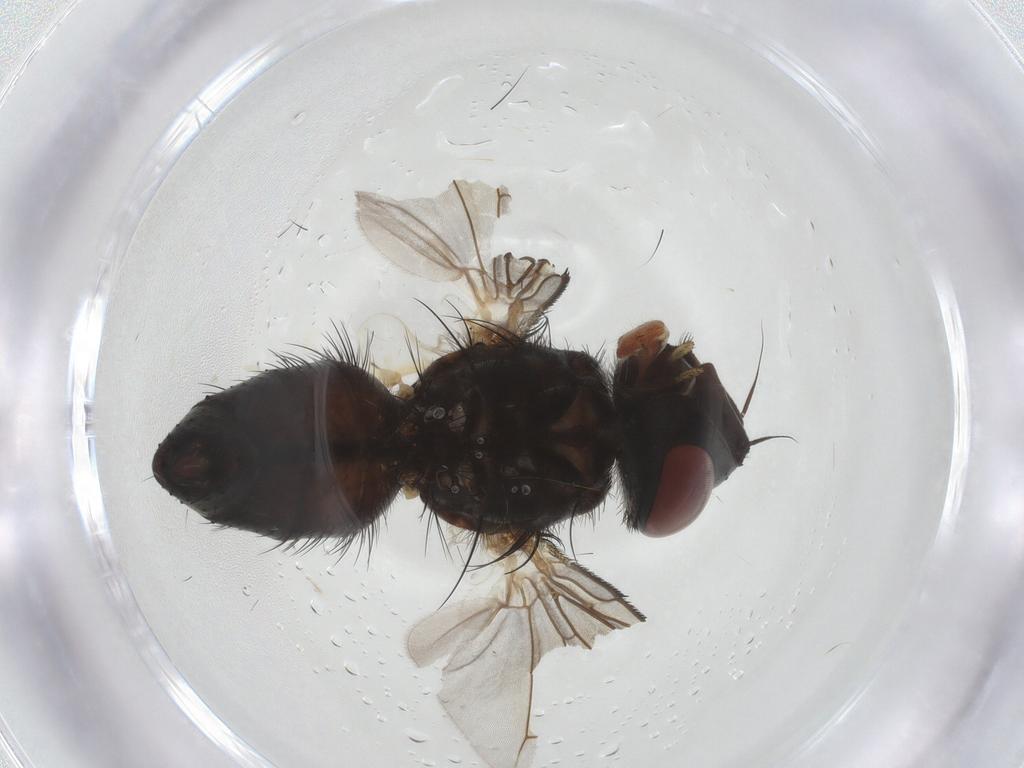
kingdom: Animalia
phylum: Arthropoda
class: Insecta
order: Diptera
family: Tachinidae
